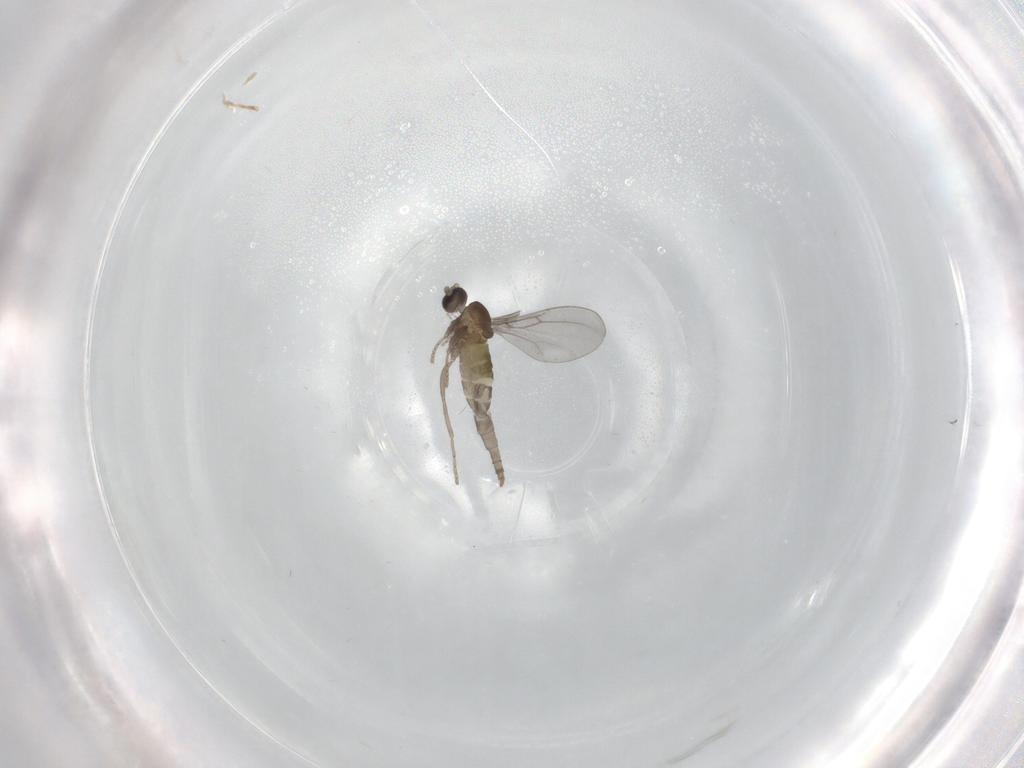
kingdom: Animalia
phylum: Arthropoda
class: Insecta
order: Diptera
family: Cecidomyiidae
